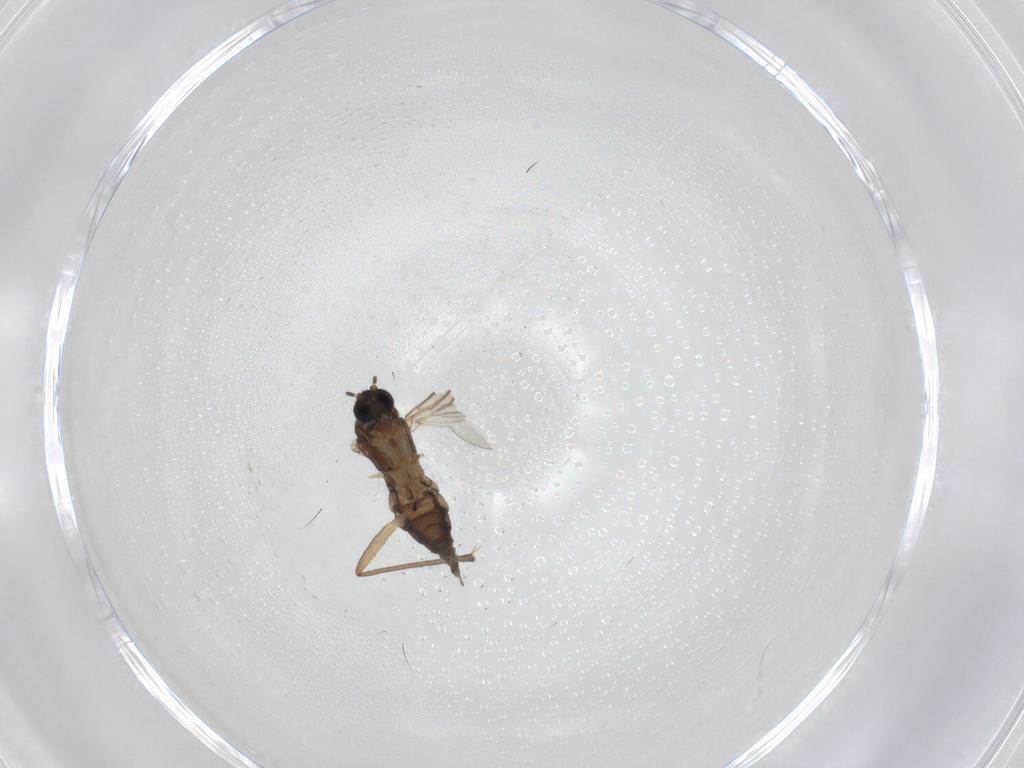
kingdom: Animalia
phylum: Arthropoda
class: Insecta
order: Diptera
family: Sciaridae
